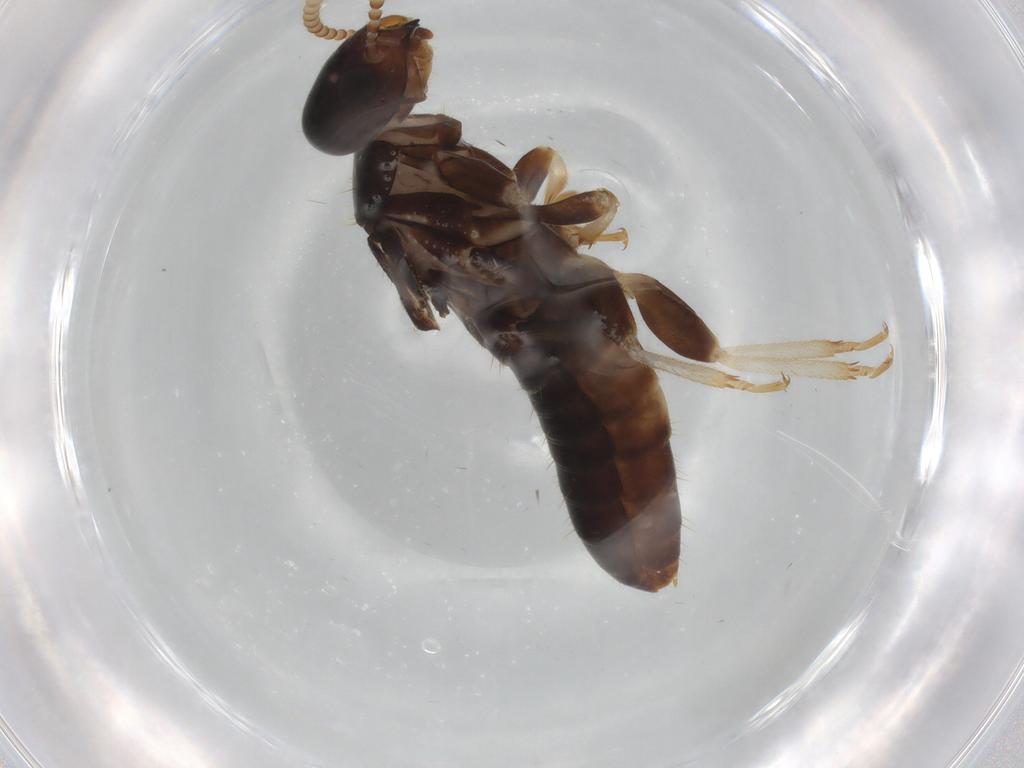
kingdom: Animalia
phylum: Arthropoda
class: Insecta
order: Blattodea
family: Kalotermitidae
